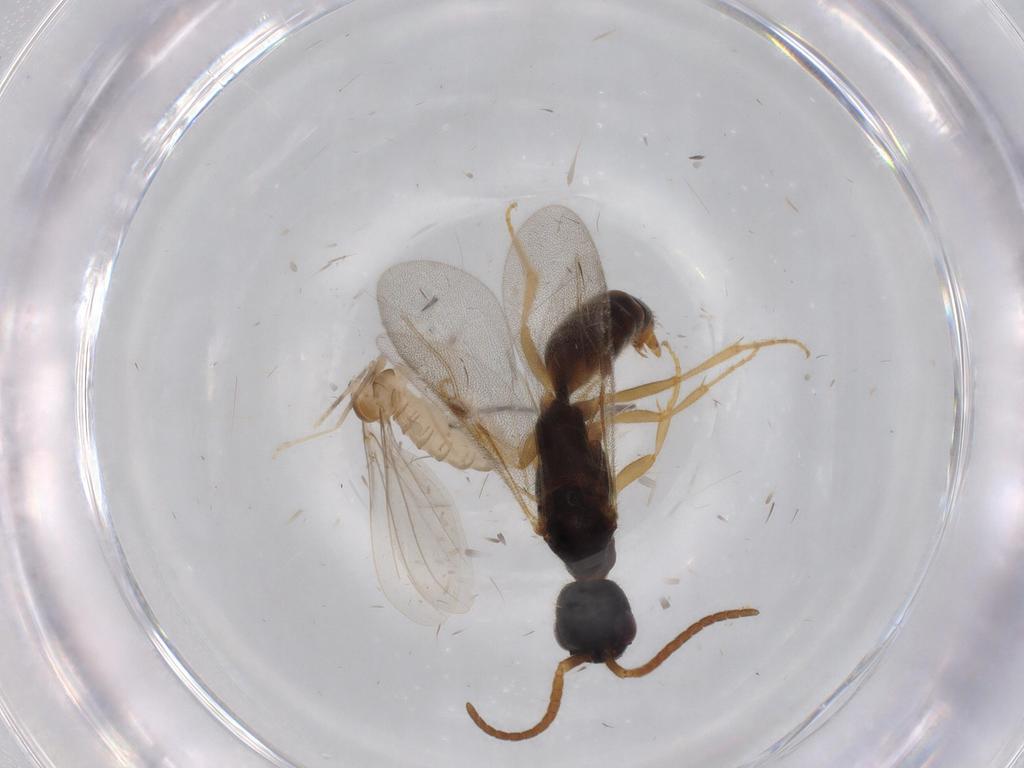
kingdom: Animalia
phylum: Arthropoda
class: Insecta
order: Hymenoptera
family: Bethylidae
